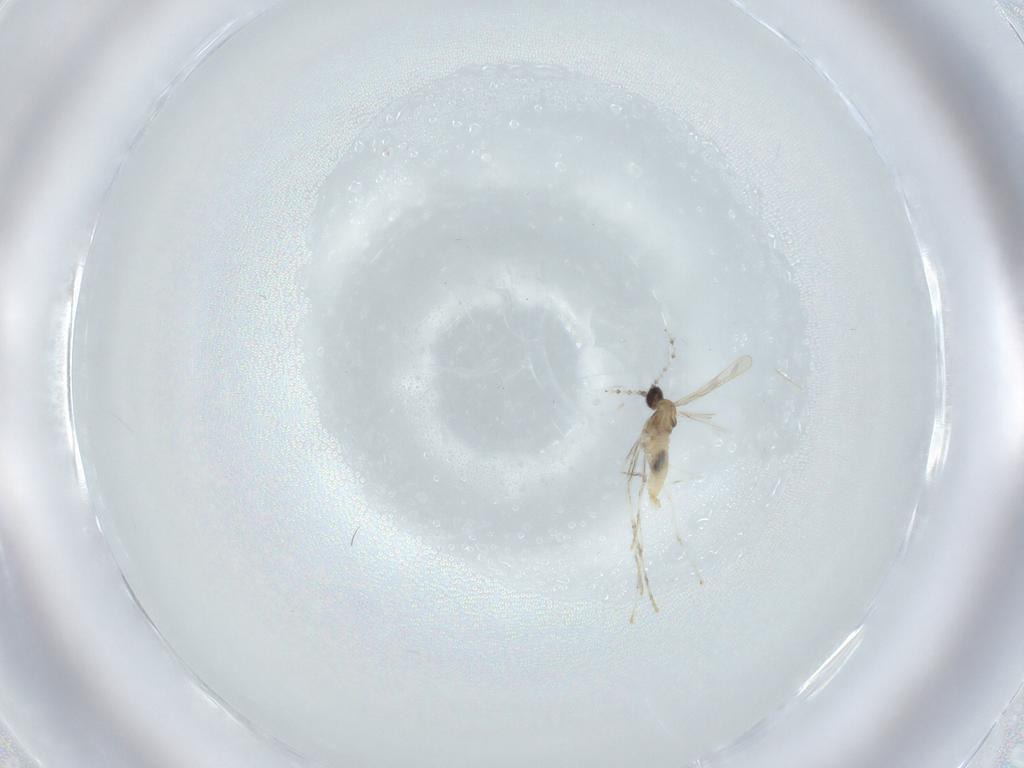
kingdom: Animalia
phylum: Arthropoda
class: Insecta
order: Diptera
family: Cecidomyiidae
